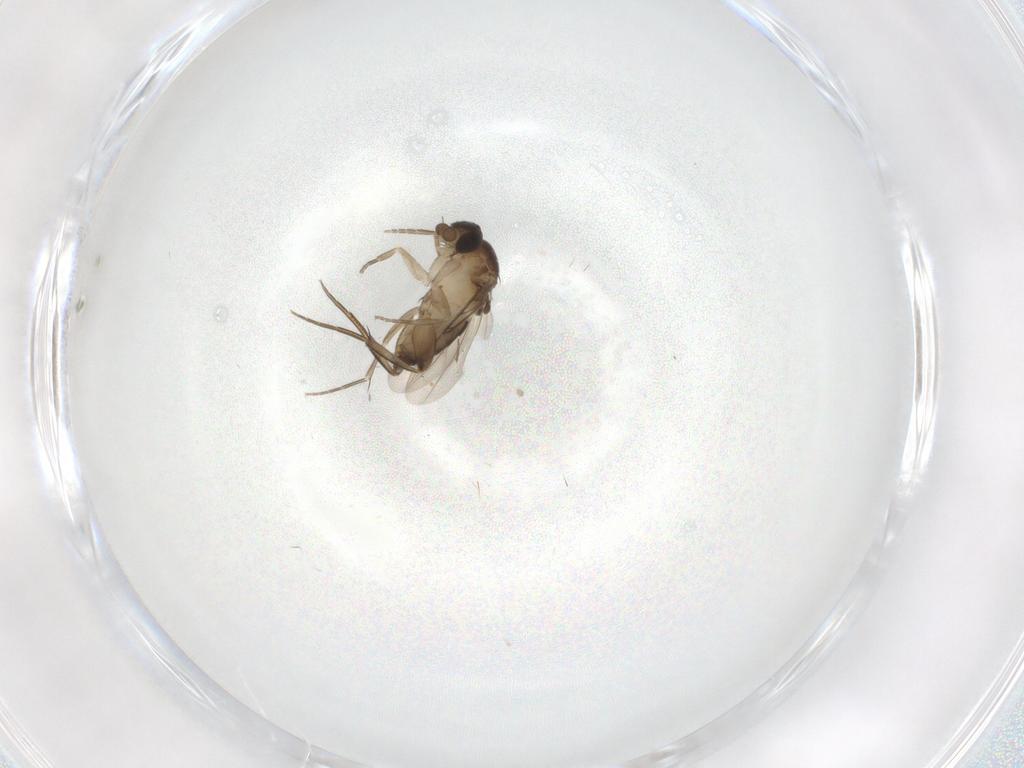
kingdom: Animalia
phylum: Arthropoda
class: Insecta
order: Diptera
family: Phoridae
